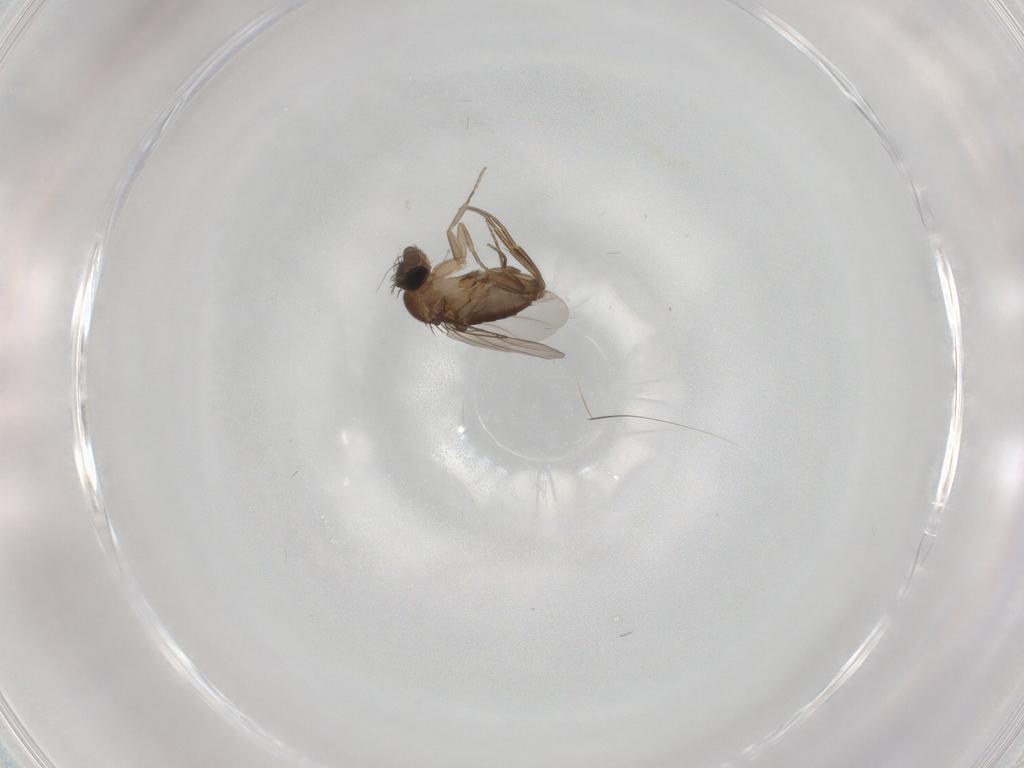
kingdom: Animalia
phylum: Arthropoda
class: Insecta
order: Diptera
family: Phoridae
